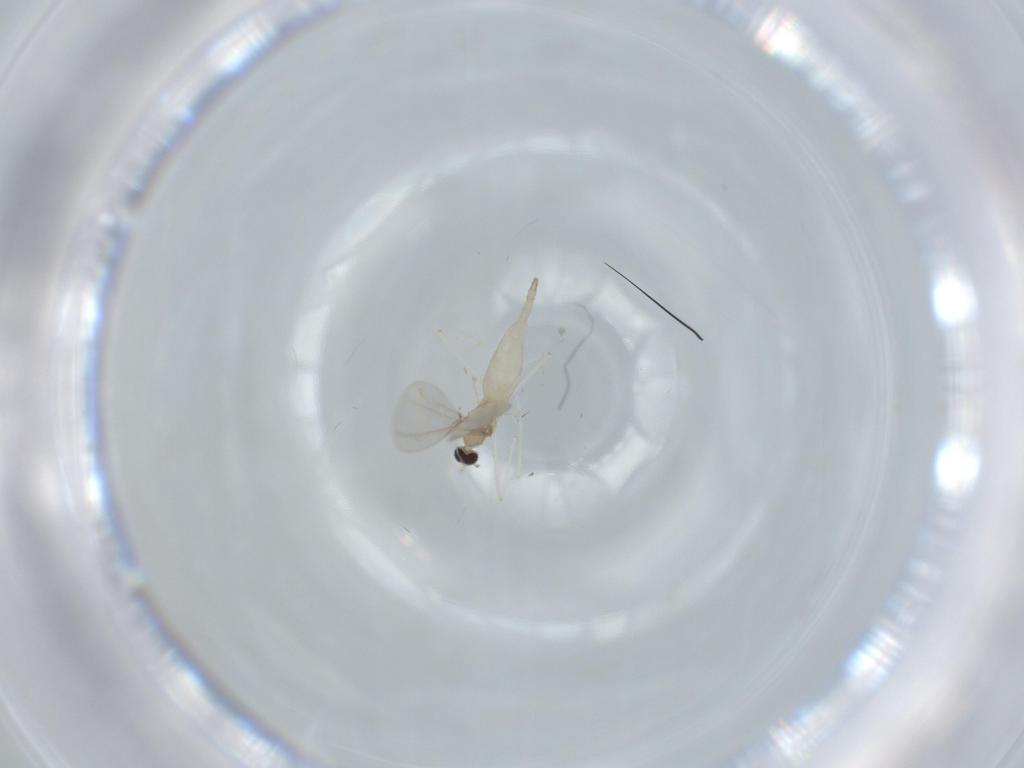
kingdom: Animalia
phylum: Arthropoda
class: Insecta
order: Diptera
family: Cecidomyiidae
